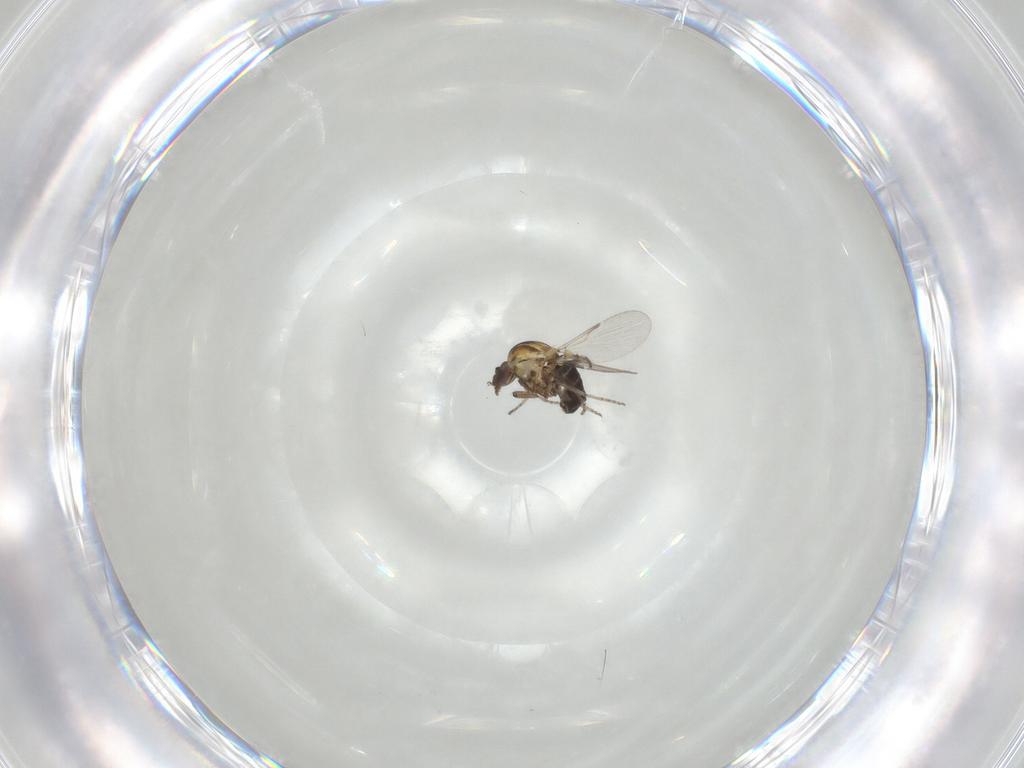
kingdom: Animalia
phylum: Arthropoda
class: Insecta
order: Diptera
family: Ceratopogonidae
